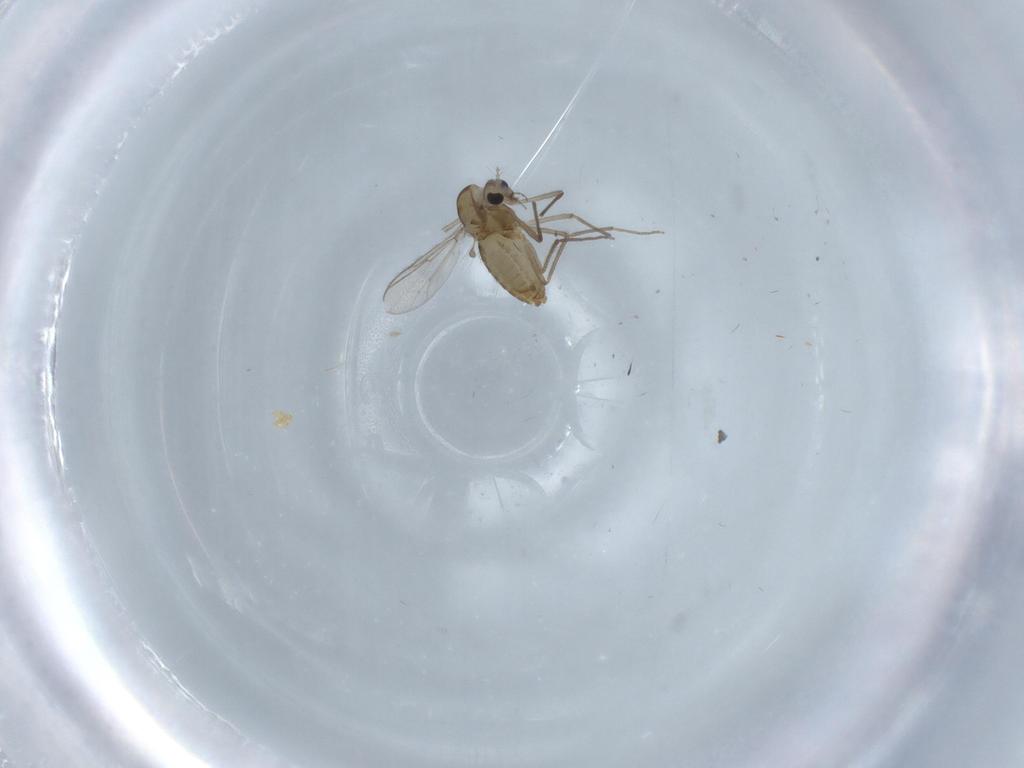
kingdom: Animalia
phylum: Arthropoda
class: Insecta
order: Diptera
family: Chironomidae
